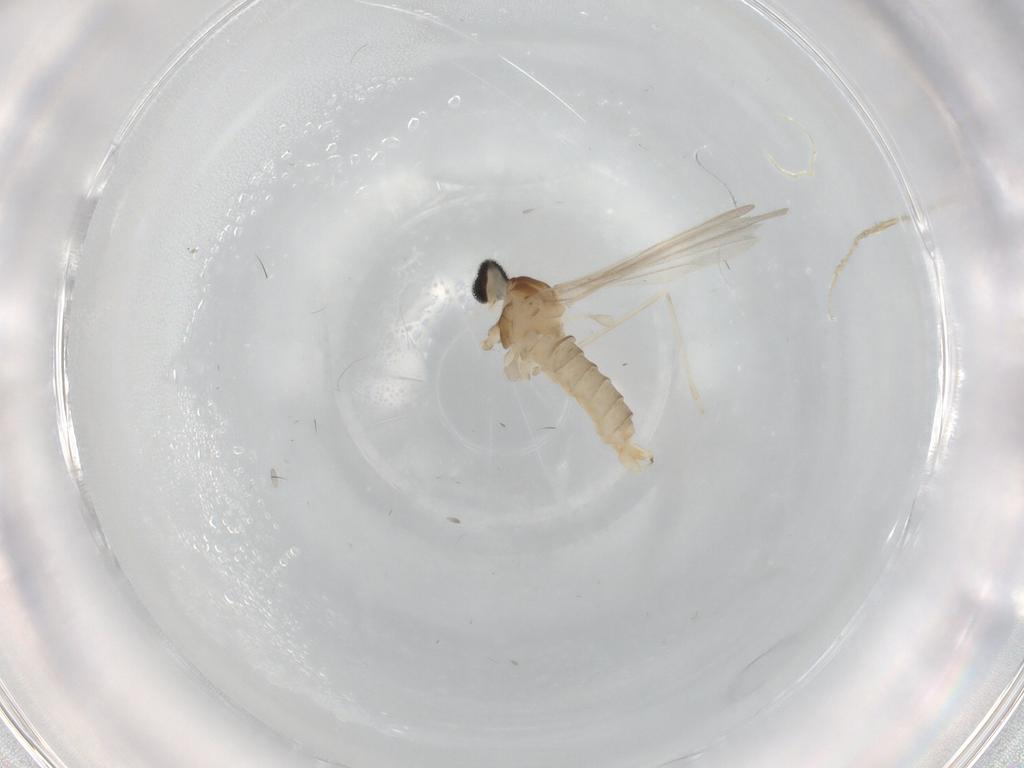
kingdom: Animalia
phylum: Arthropoda
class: Insecta
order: Diptera
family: Cecidomyiidae
